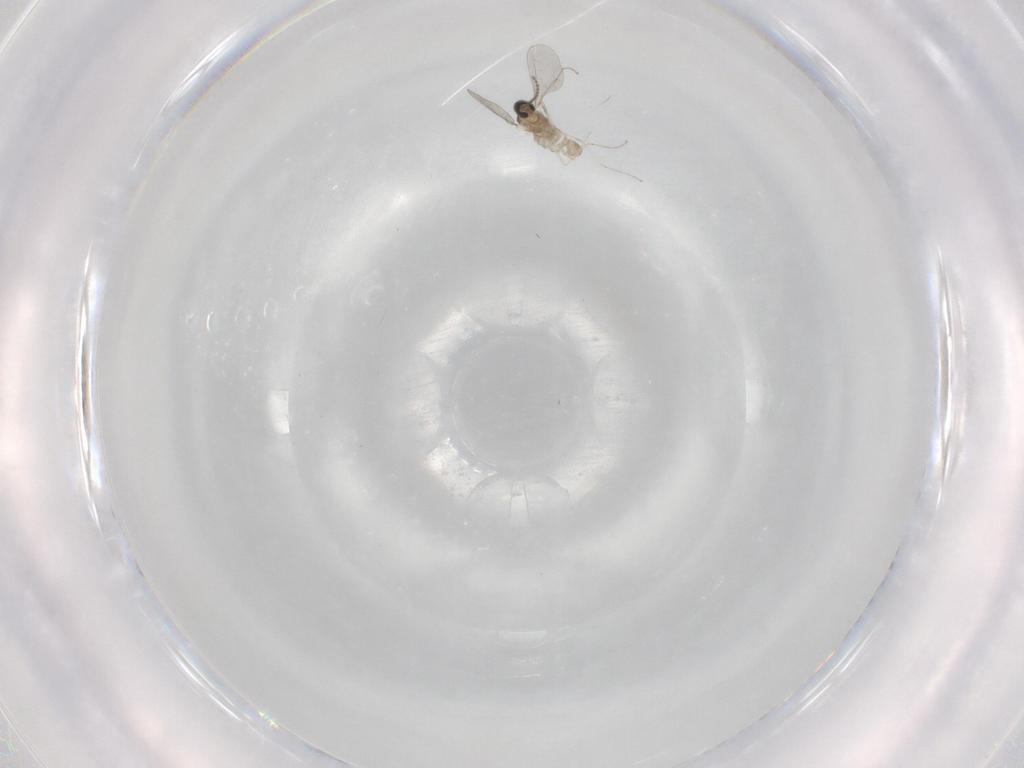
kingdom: Animalia
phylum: Arthropoda
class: Insecta
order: Diptera
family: Cecidomyiidae
